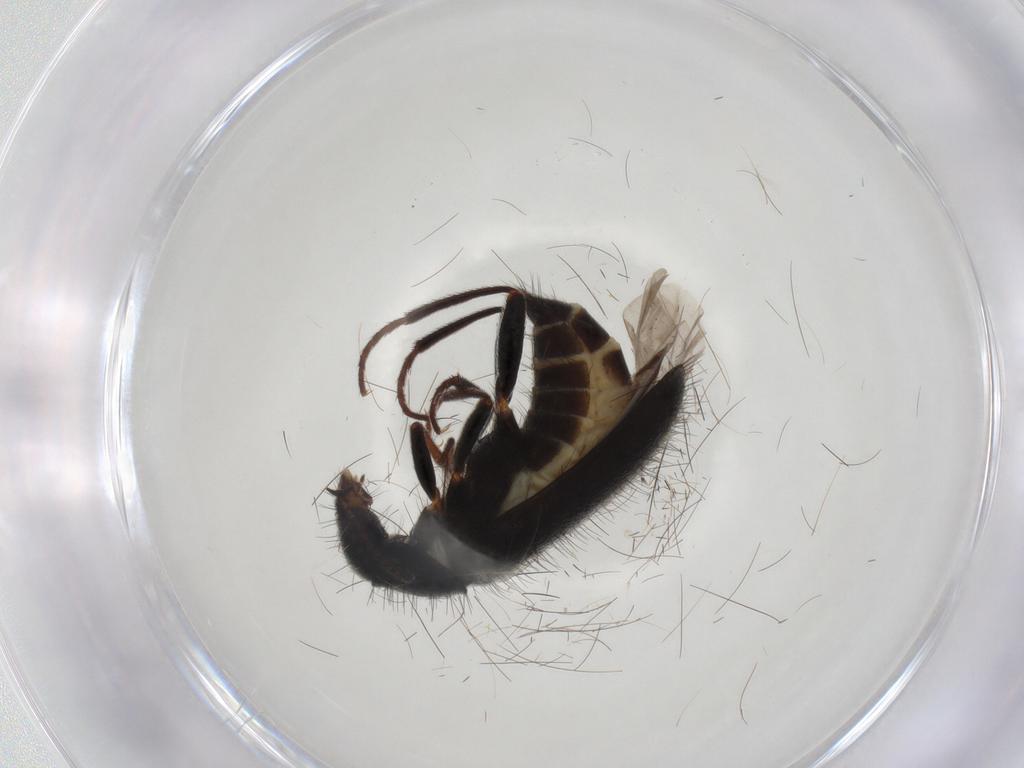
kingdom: Animalia
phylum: Arthropoda
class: Insecta
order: Coleoptera
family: Melyridae
